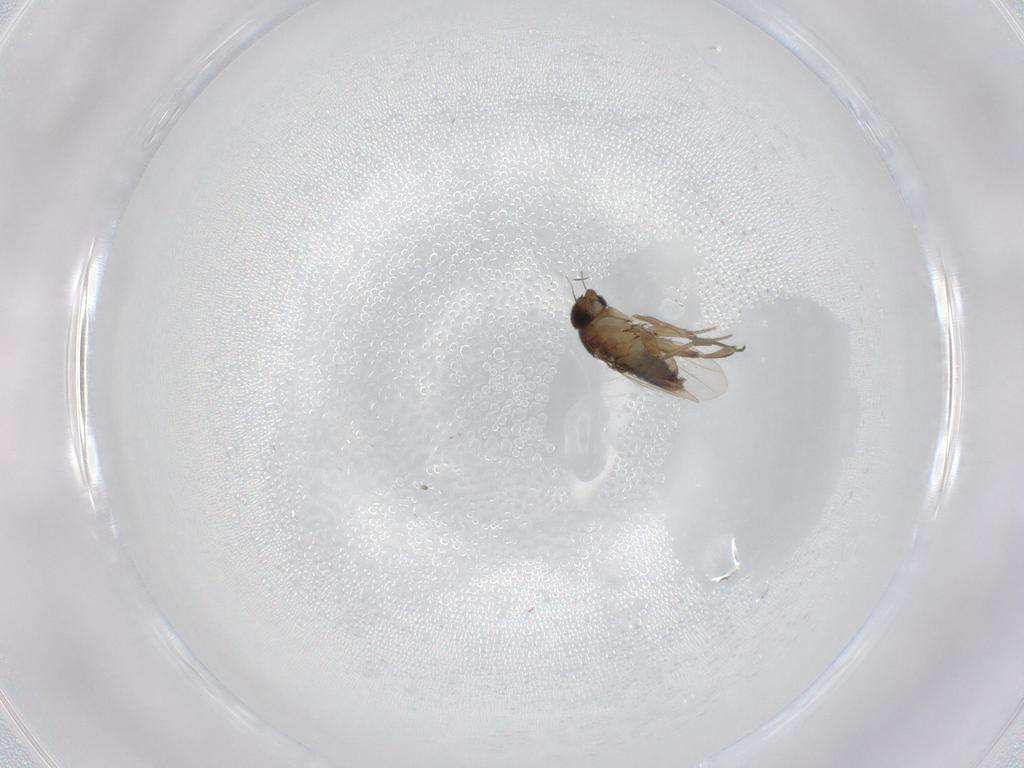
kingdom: Animalia
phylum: Arthropoda
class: Insecta
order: Diptera
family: Phoridae
